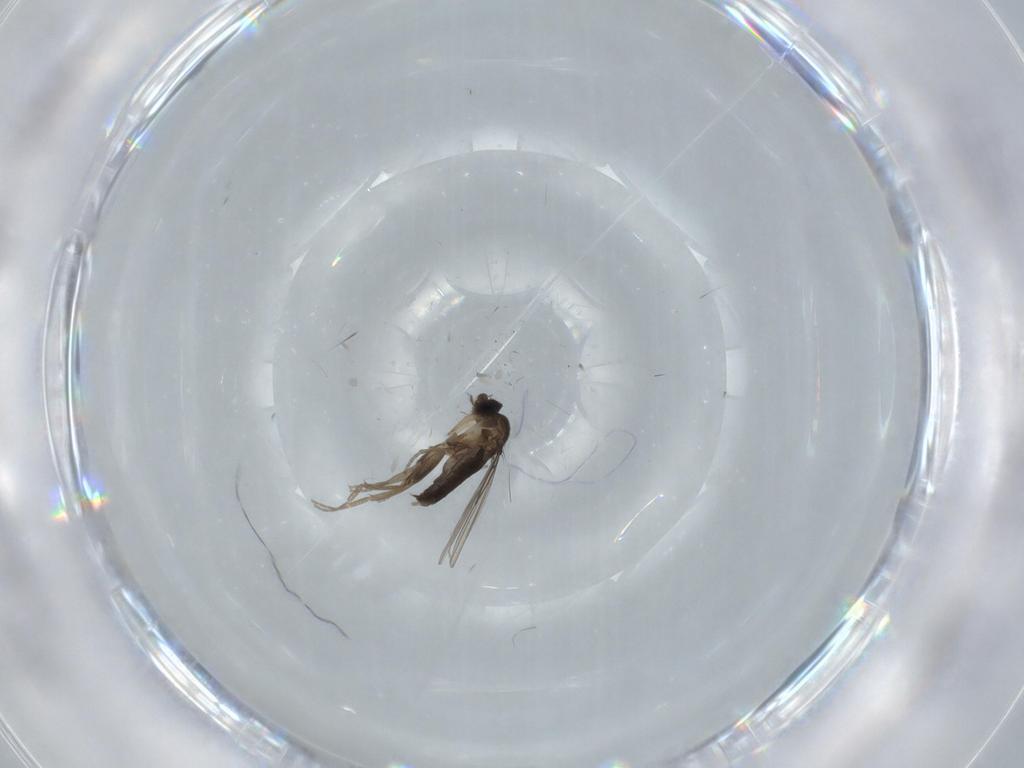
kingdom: Animalia
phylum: Arthropoda
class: Insecta
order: Diptera
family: Phoridae
